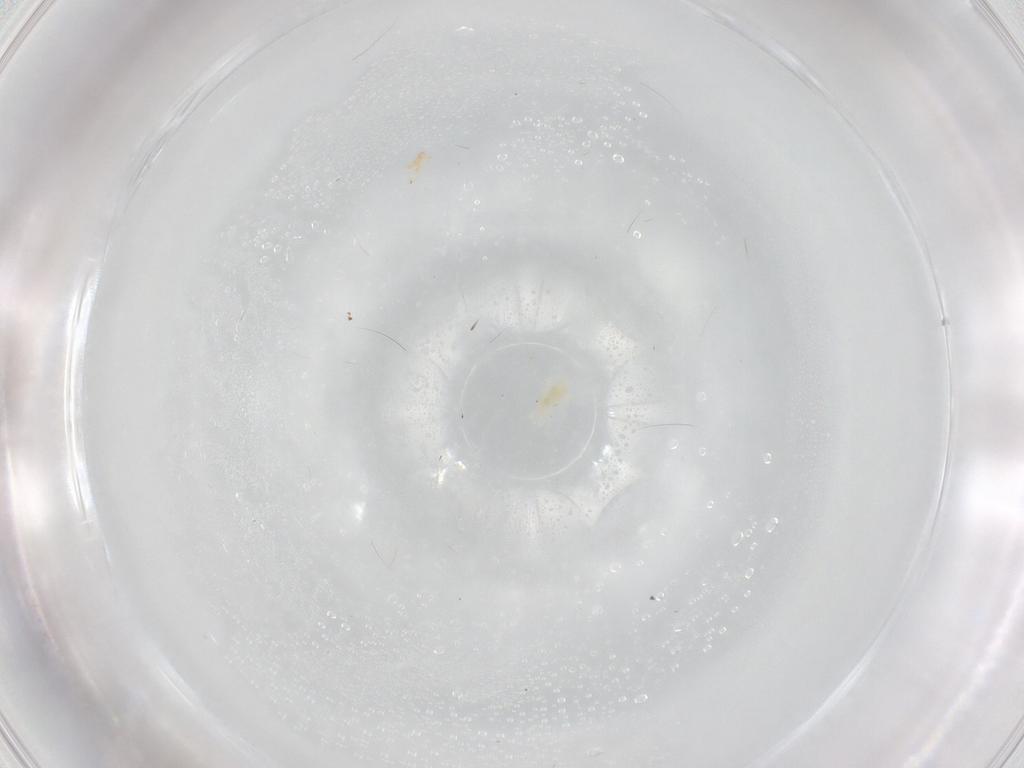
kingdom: Animalia
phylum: Arthropoda
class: Arachnida
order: Trombidiformes
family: Eupodidae
